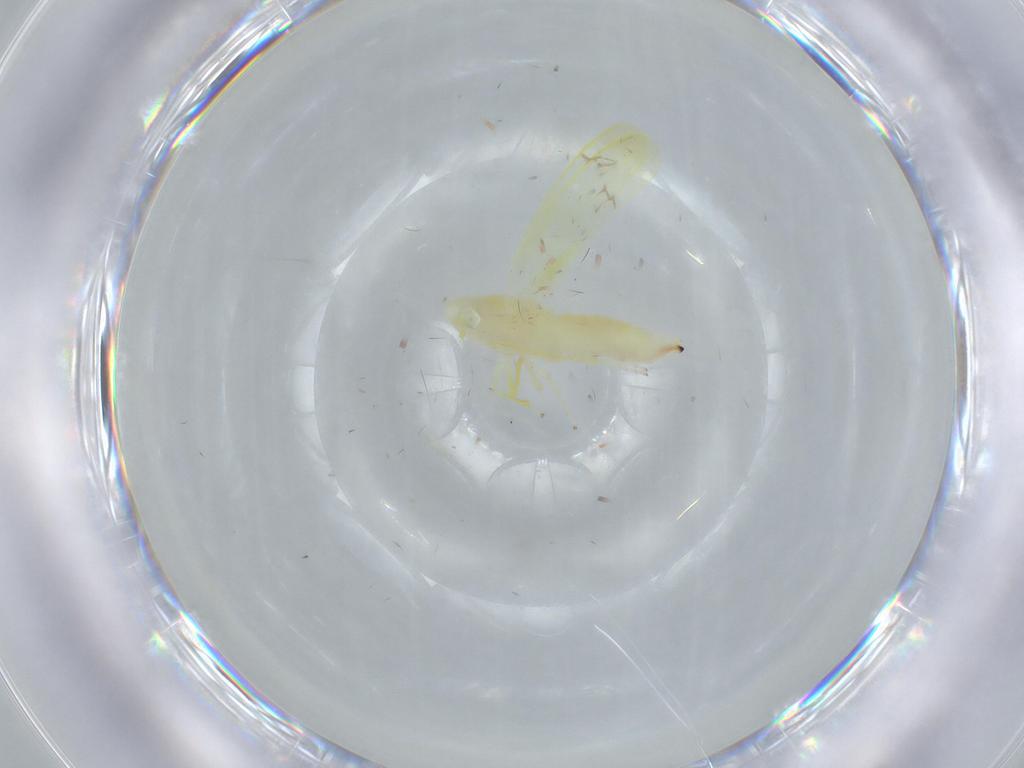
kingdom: Animalia
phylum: Arthropoda
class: Insecta
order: Hemiptera
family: Cicadellidae
